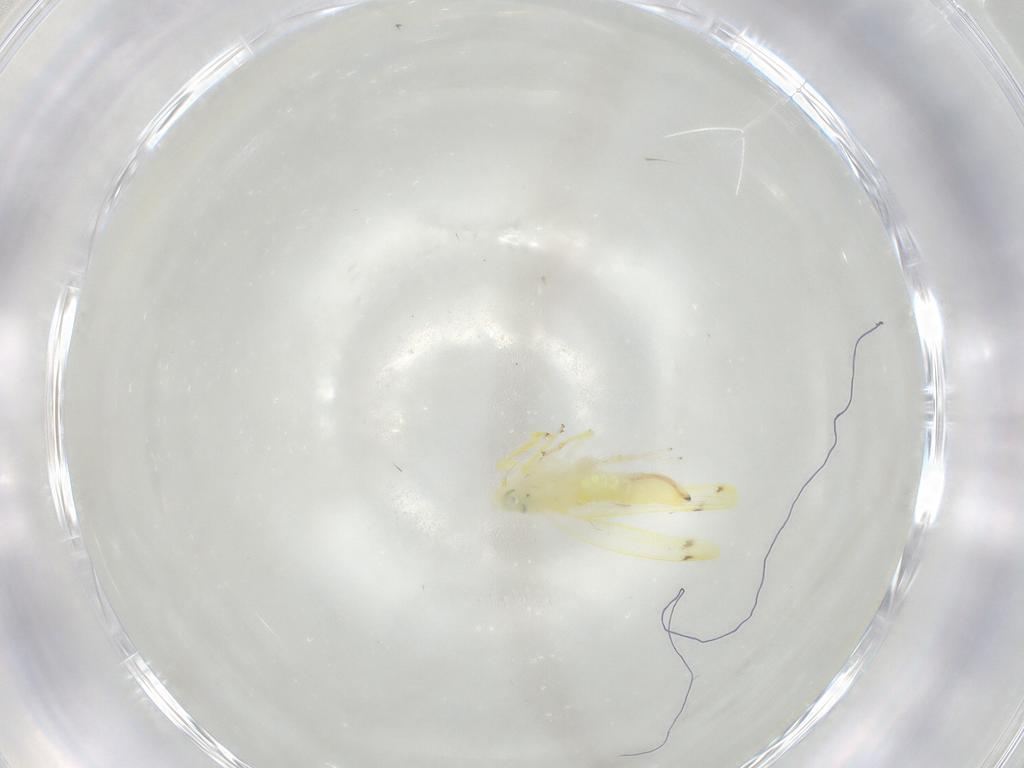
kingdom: Animalia
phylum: Arthropoda
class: Insecta
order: Hemiptera
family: Cicadellidae
